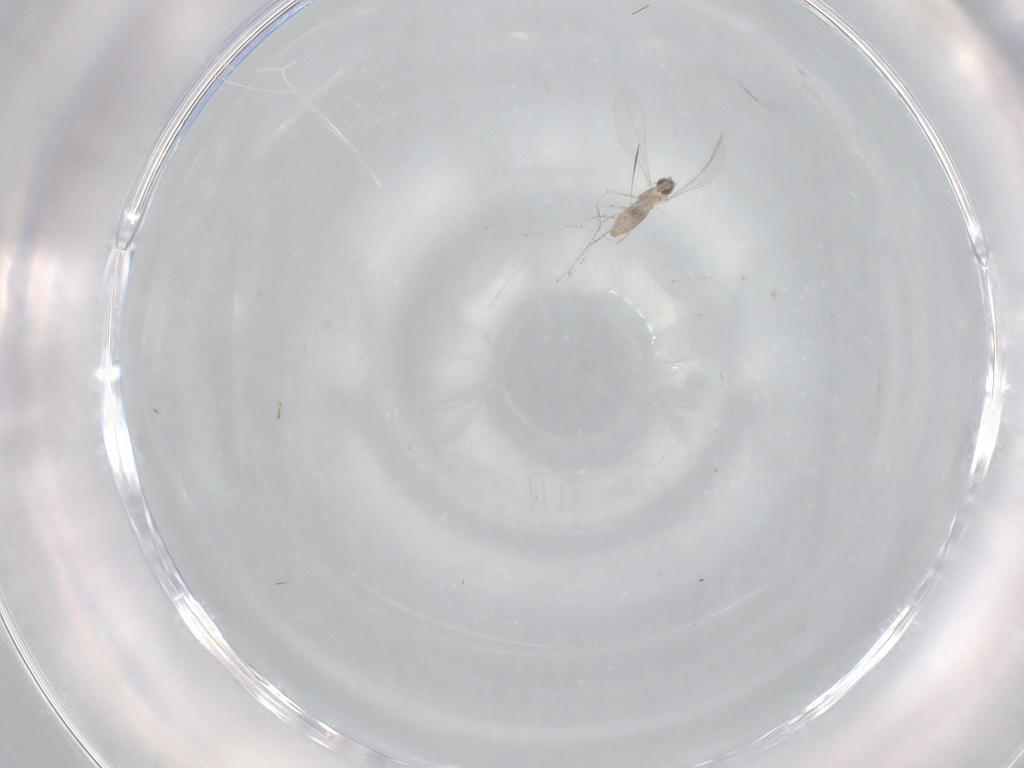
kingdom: Animalia
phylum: Arthropoda
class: Insecta
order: Diptera
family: Cecidomyiidae
